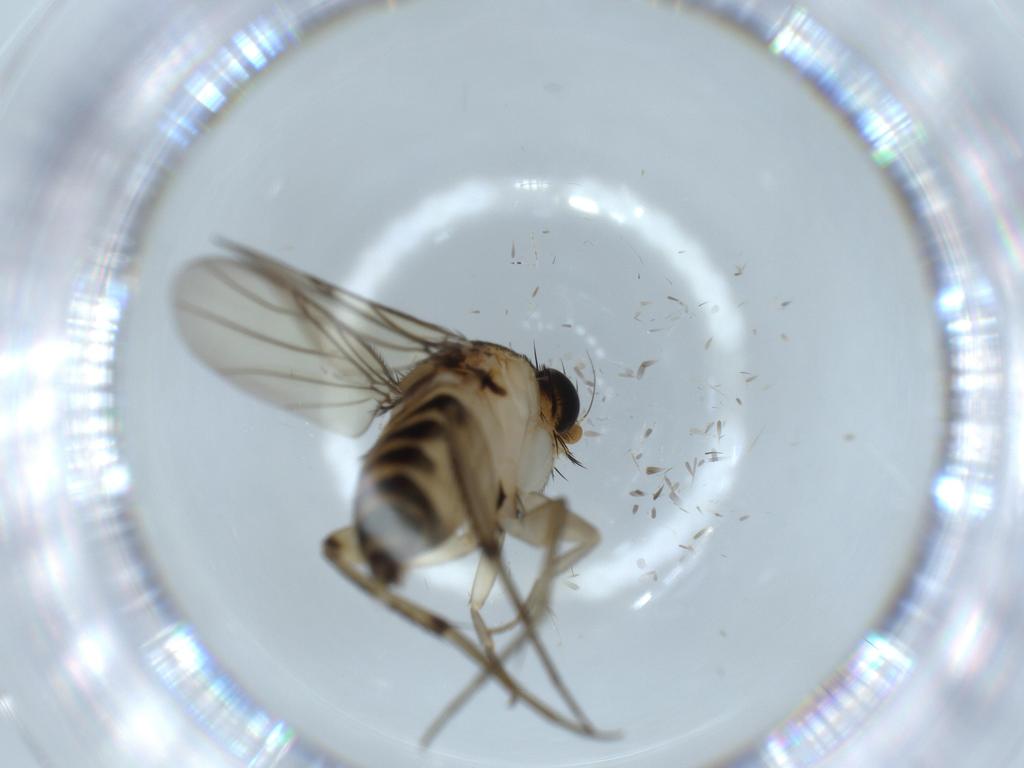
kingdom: Animalia
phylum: Arthropoda
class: Insecta
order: Diptera
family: Phoridae
